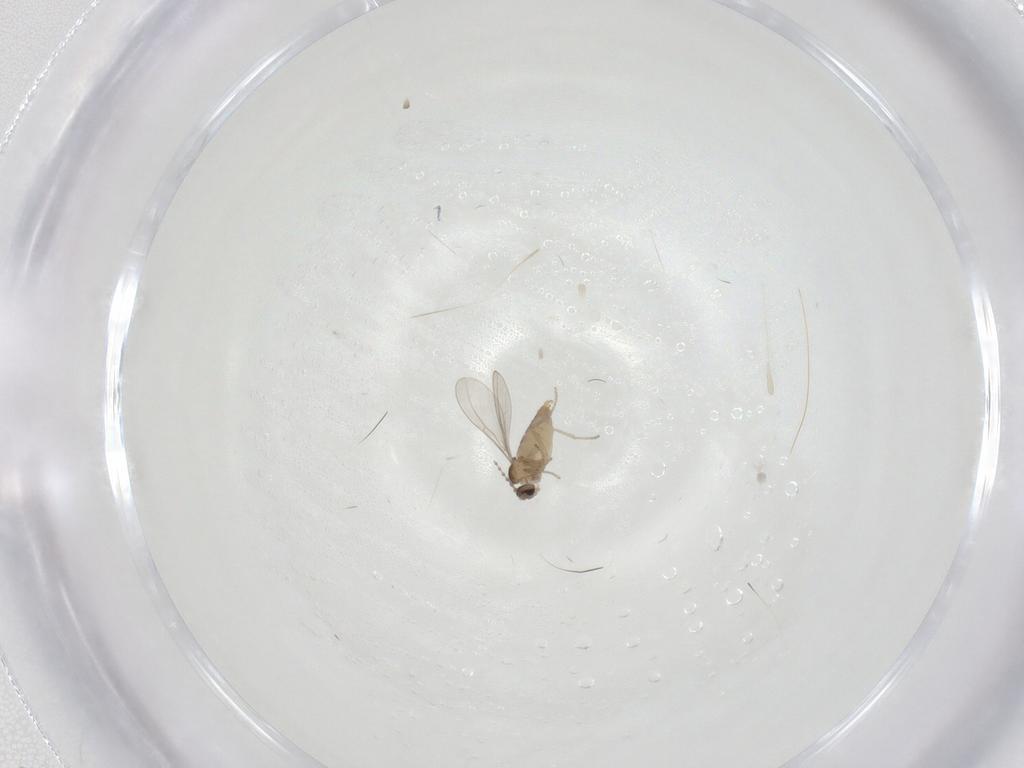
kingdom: Animalia
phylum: Arthropoda
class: Insecta
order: Diptera
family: Cecidomyiidae
